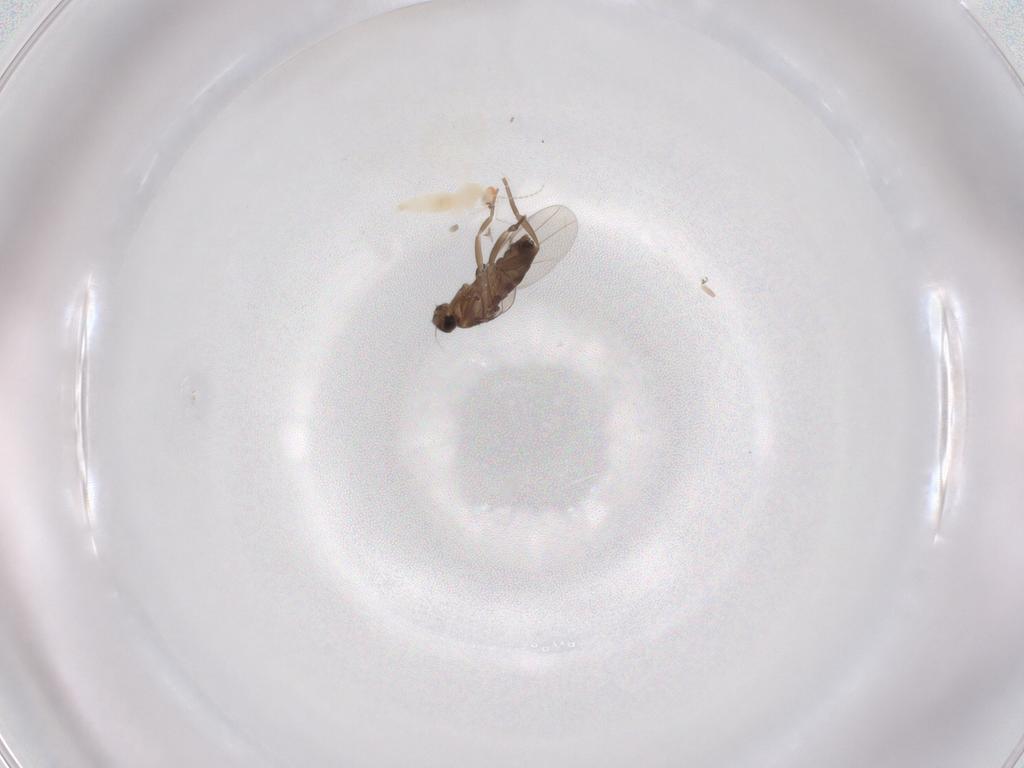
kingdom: Animalia
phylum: Arthropoda
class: Insecta
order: Diptera
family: Phoridae
